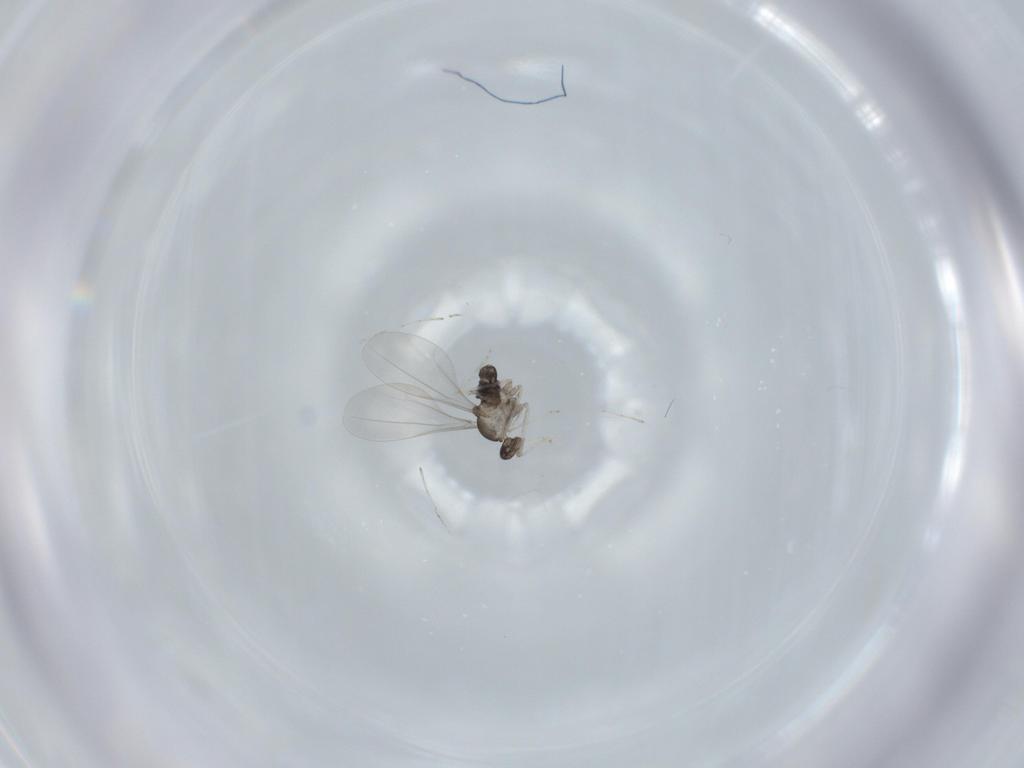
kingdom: Animalia
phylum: Arthropoda
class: Insecta
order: Diptera
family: Cecidomyiidae
